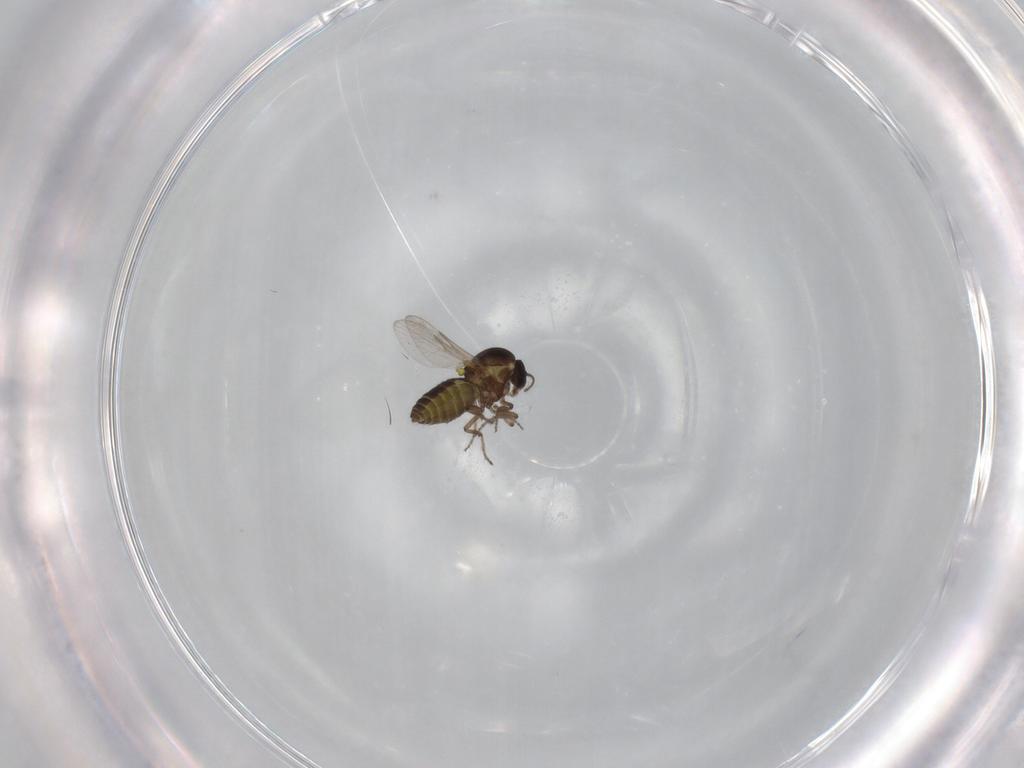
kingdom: Animalia
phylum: Arthropoda
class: Insecta
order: Diptera
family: Ceratopogonidae
